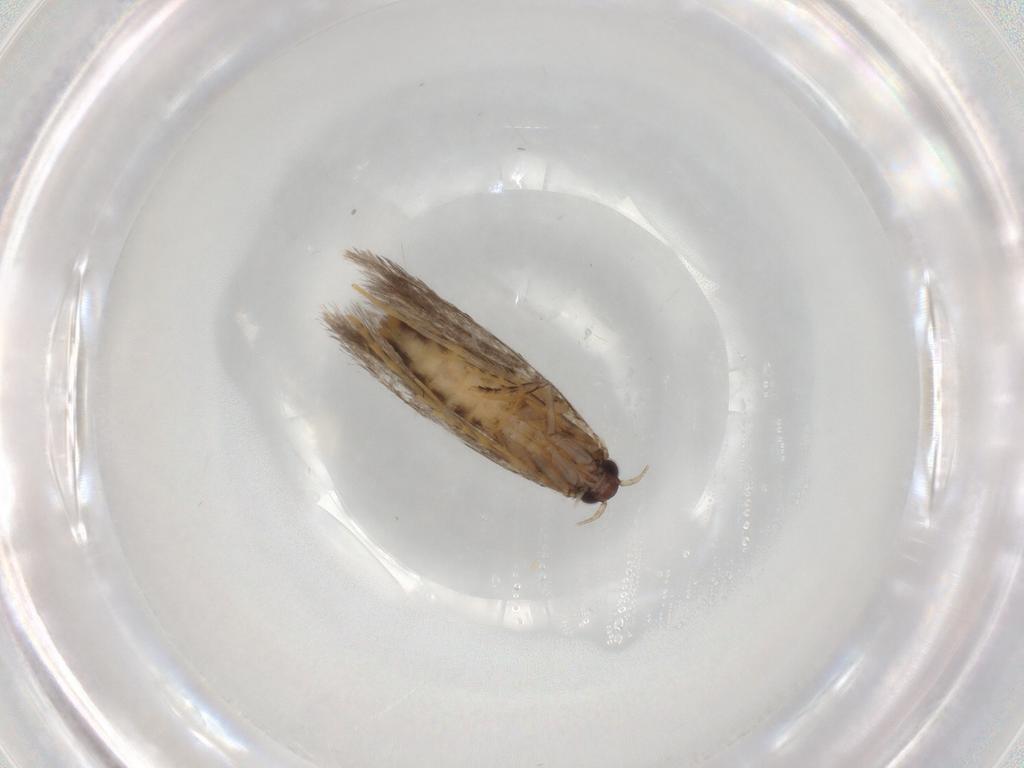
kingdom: Animalia
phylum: Arthropoda
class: Insecta
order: Lepidoptera
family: Tineidae
